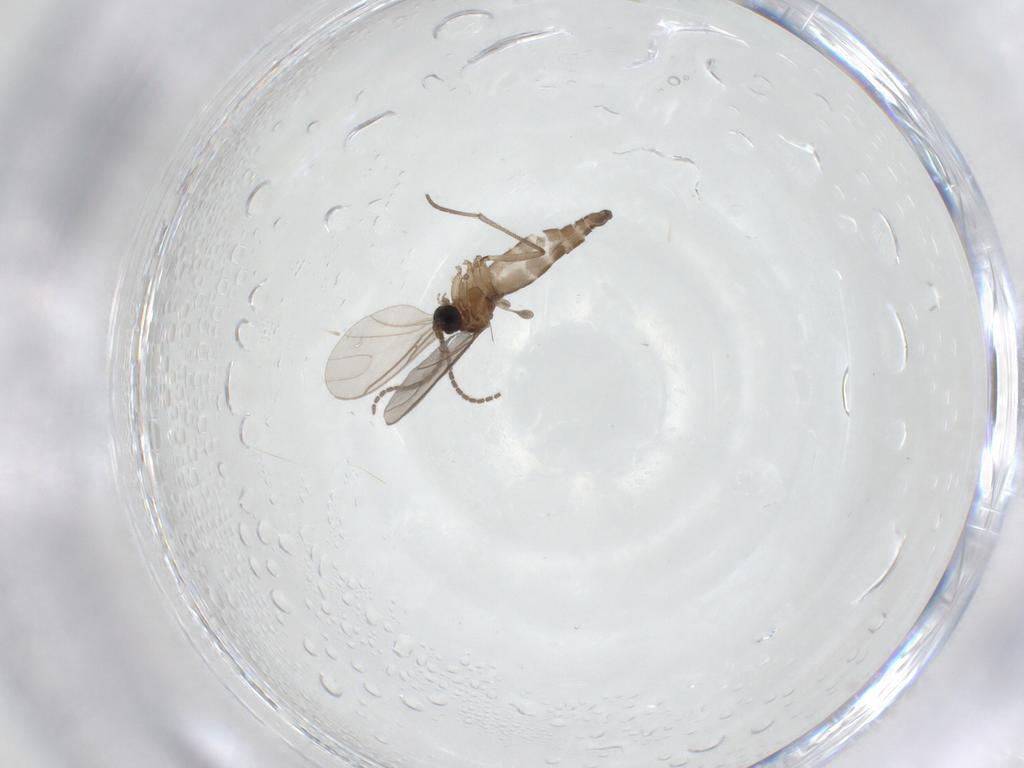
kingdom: Animalia
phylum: Arthropoda
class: Insecta
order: Diptera
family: Sciaridae
